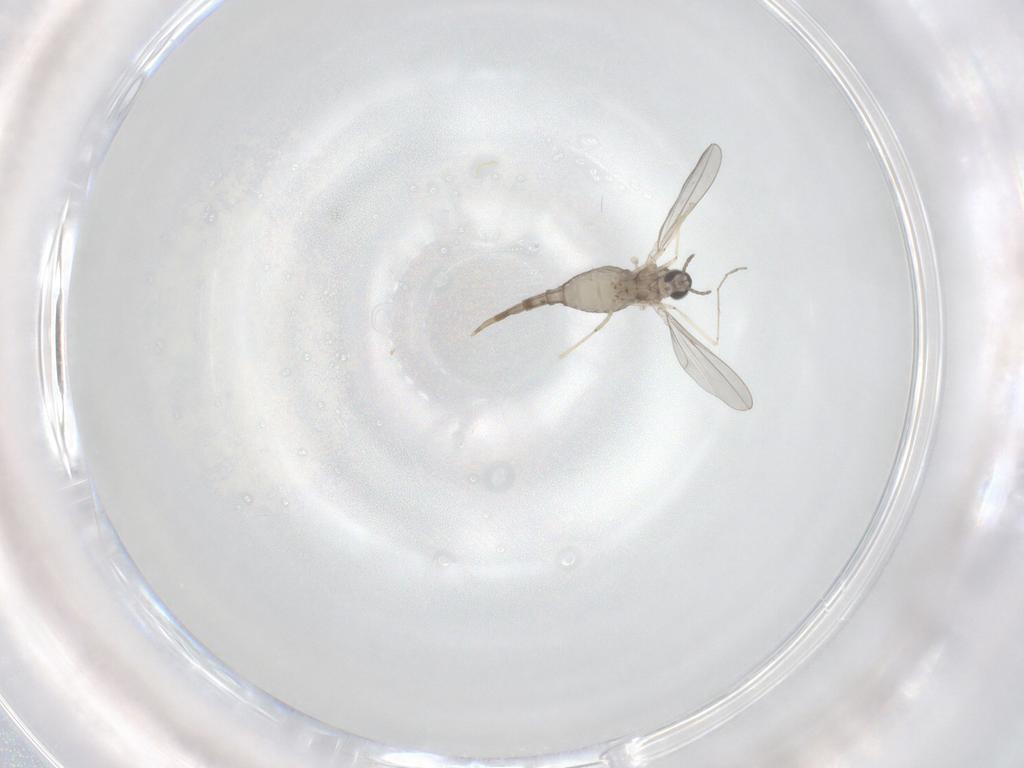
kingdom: Animalia
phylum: Arthropoda
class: Insecta
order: Diptera
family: Cecidomyiidae
